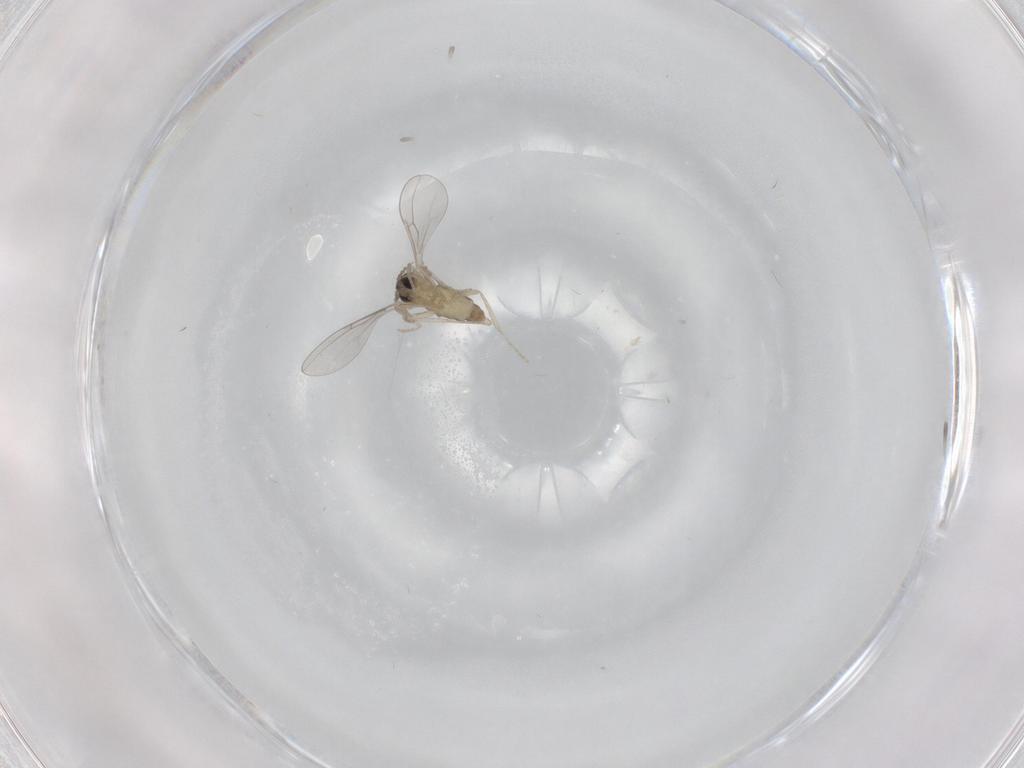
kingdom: Animalia
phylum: Arthropoda
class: Insecta
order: Diptera
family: Cecidomyiidae
